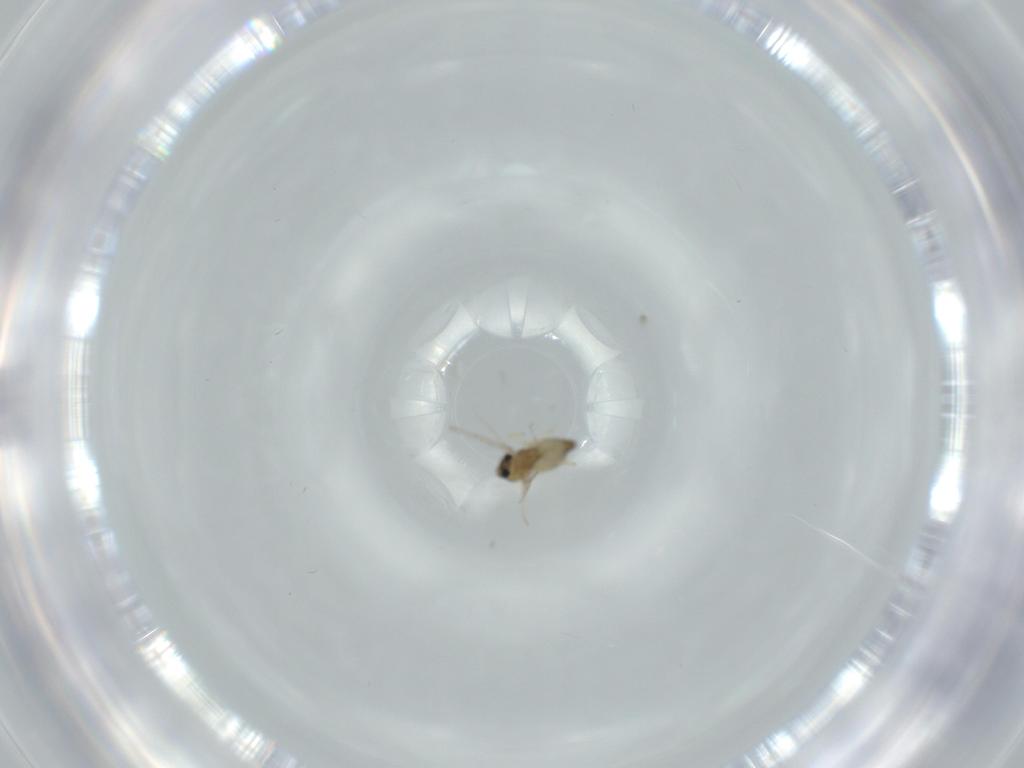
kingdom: Animalia
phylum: Arthropoda
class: Insecta
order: Diptera
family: Chironomidae
